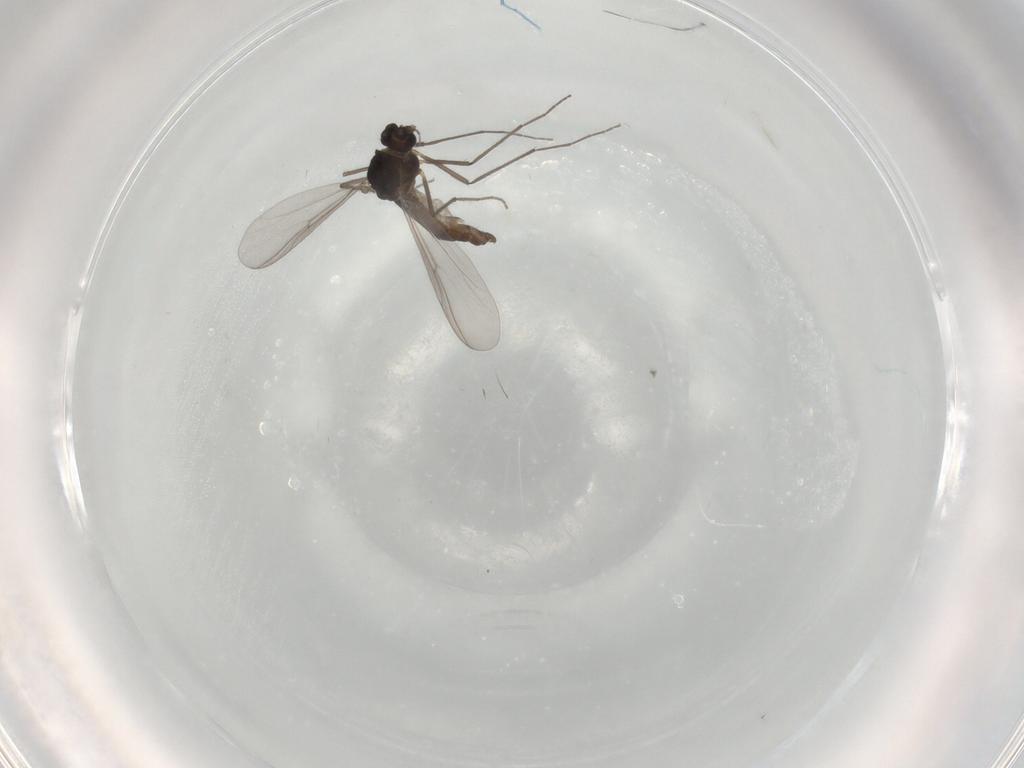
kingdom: Animalia
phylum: Arthropoda
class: Insecta
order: Diptera
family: Chironomidae
